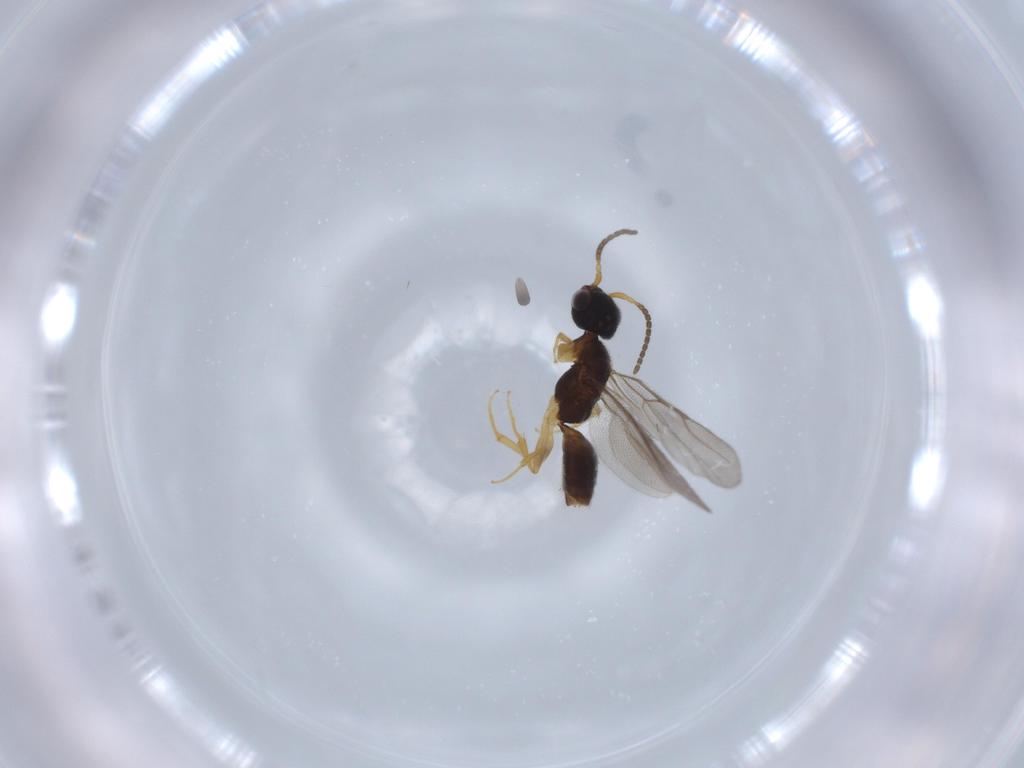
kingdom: Animalia
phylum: Arthropoda
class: Insecta
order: Hymenoptera
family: Bethylidae
